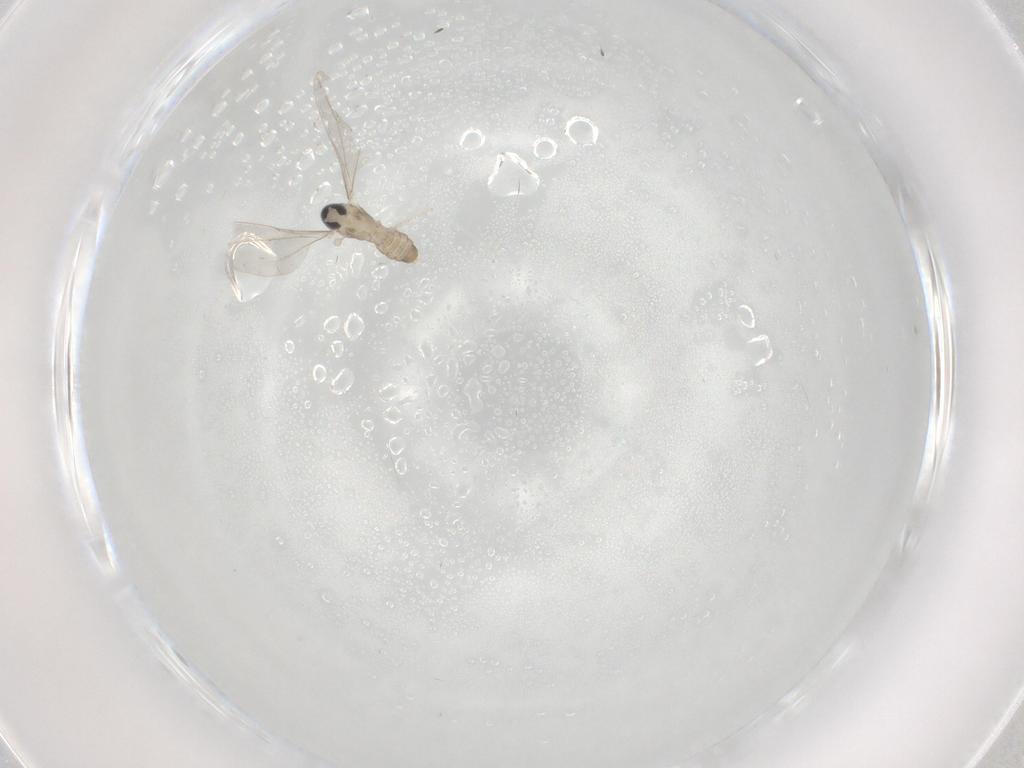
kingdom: Animalia
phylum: Arthropoda
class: Insecta
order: Diptera
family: Cecidomyiidae
